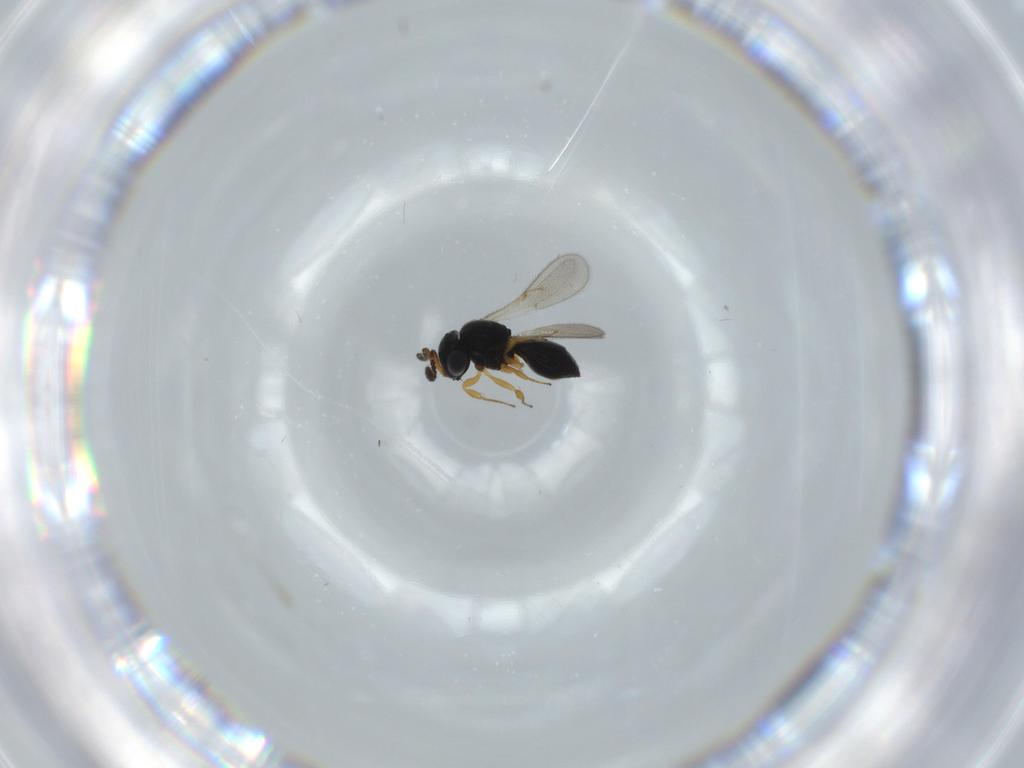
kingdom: Animalia
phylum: Arthropoda
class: Insecta
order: Hymenoptera
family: Scelionidae
